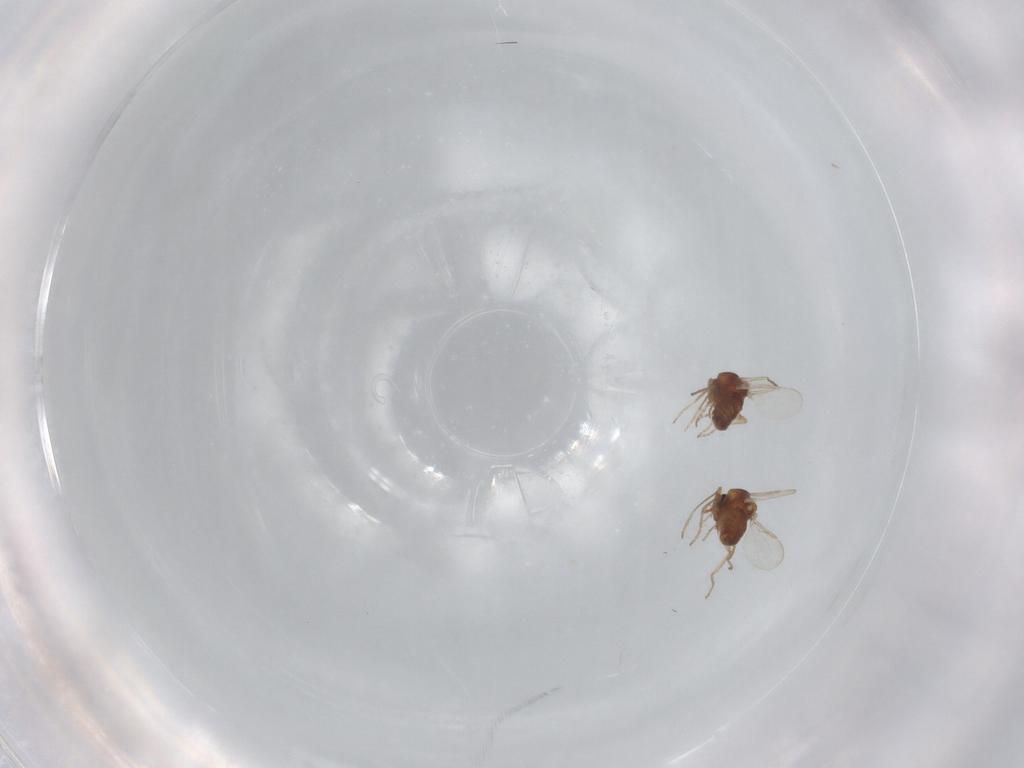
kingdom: Animalia
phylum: Arthropoda
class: Insecta
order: Diptera
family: Ceratopogonidae
